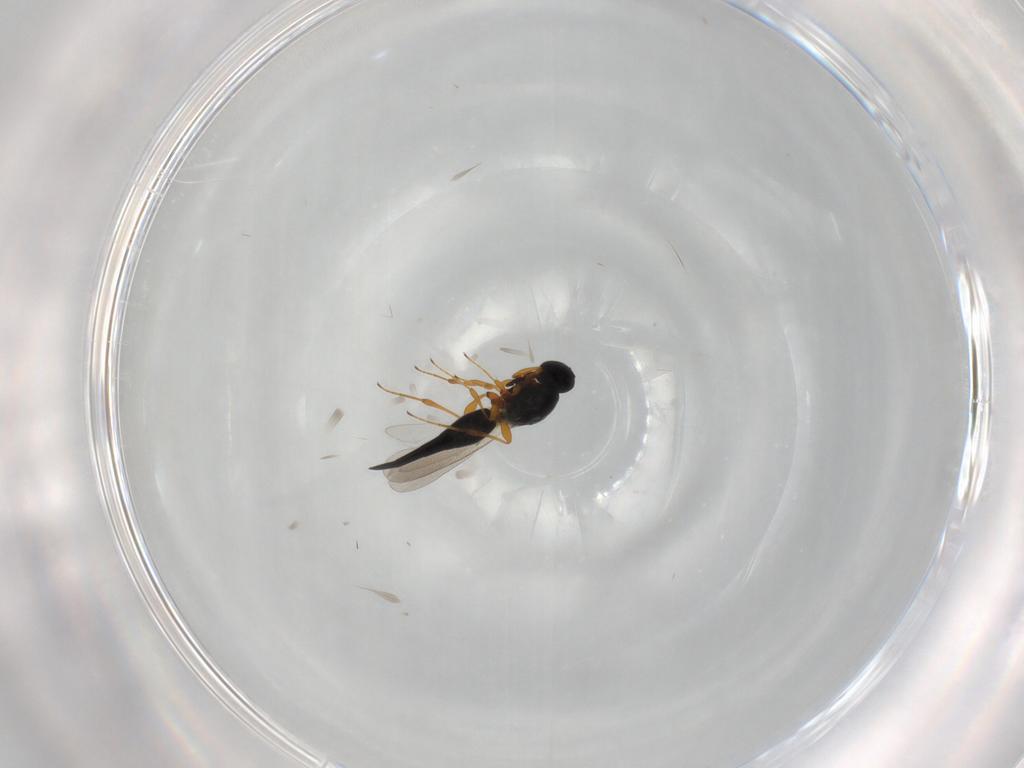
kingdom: Animalia
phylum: Arthropoda
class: Insecta
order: Hymenoptera
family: Platygastridae
